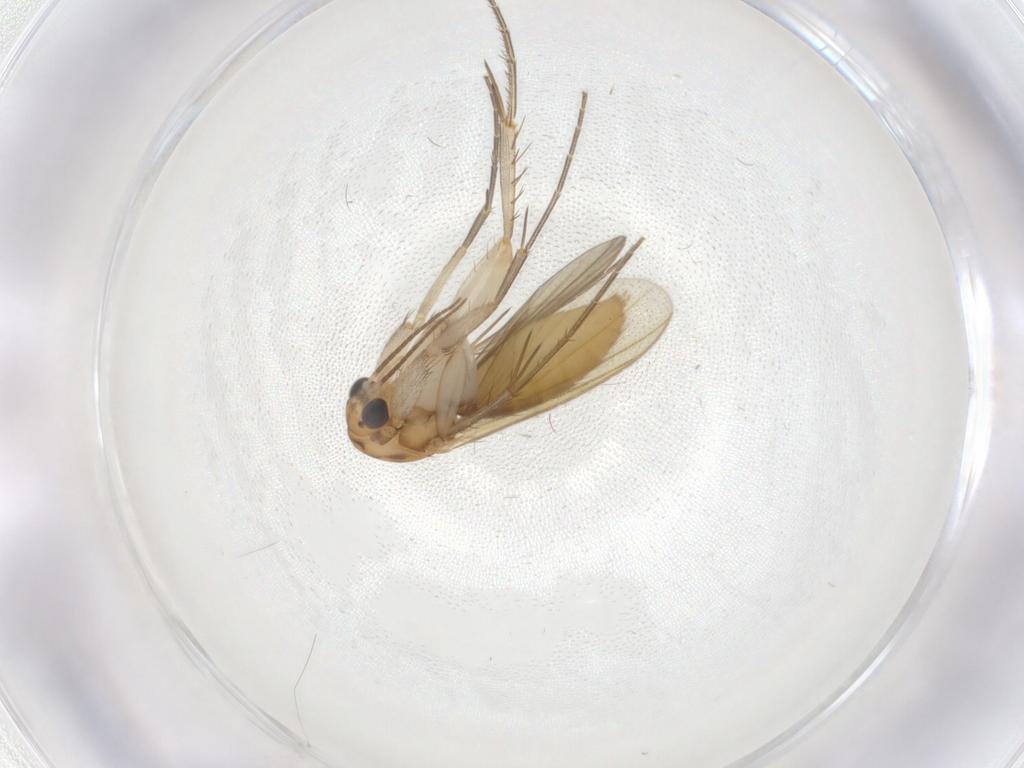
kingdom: Animalia
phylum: Arthropoda
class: Insecta
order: Diptera
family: Mycetophilidae
